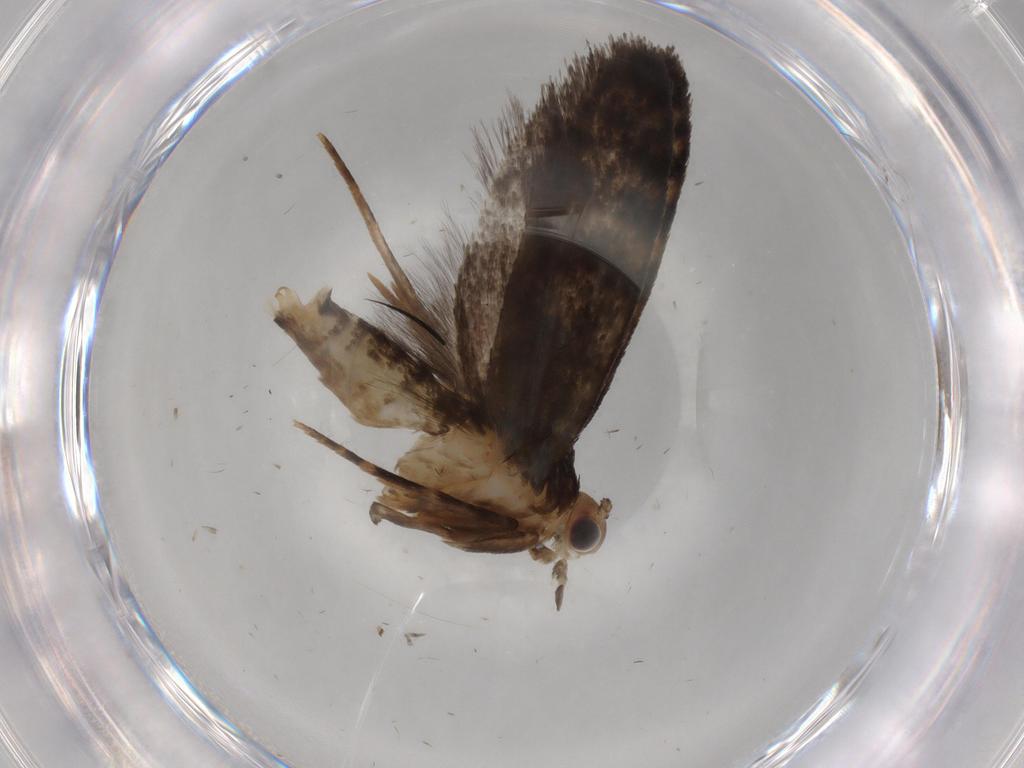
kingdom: Animalia
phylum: Arthropoda
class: Insecta
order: Lepidoptera
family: Tineidae
